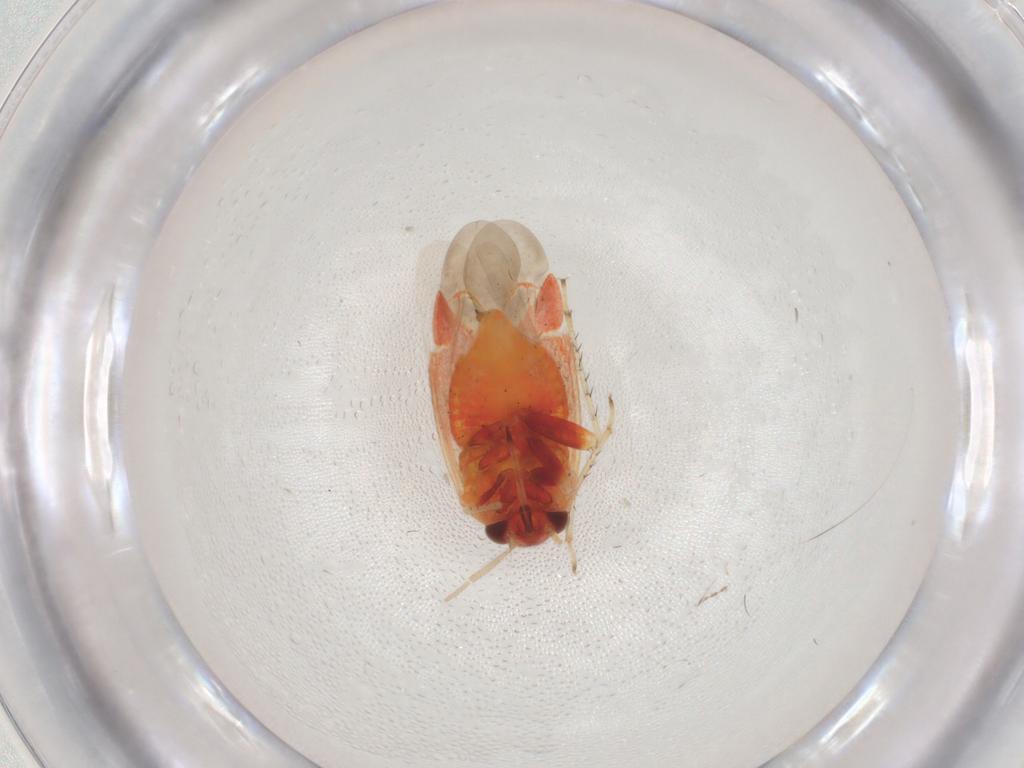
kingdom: Animalia
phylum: Arthropoda
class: Insecta
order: Hemiptera
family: Miridae
